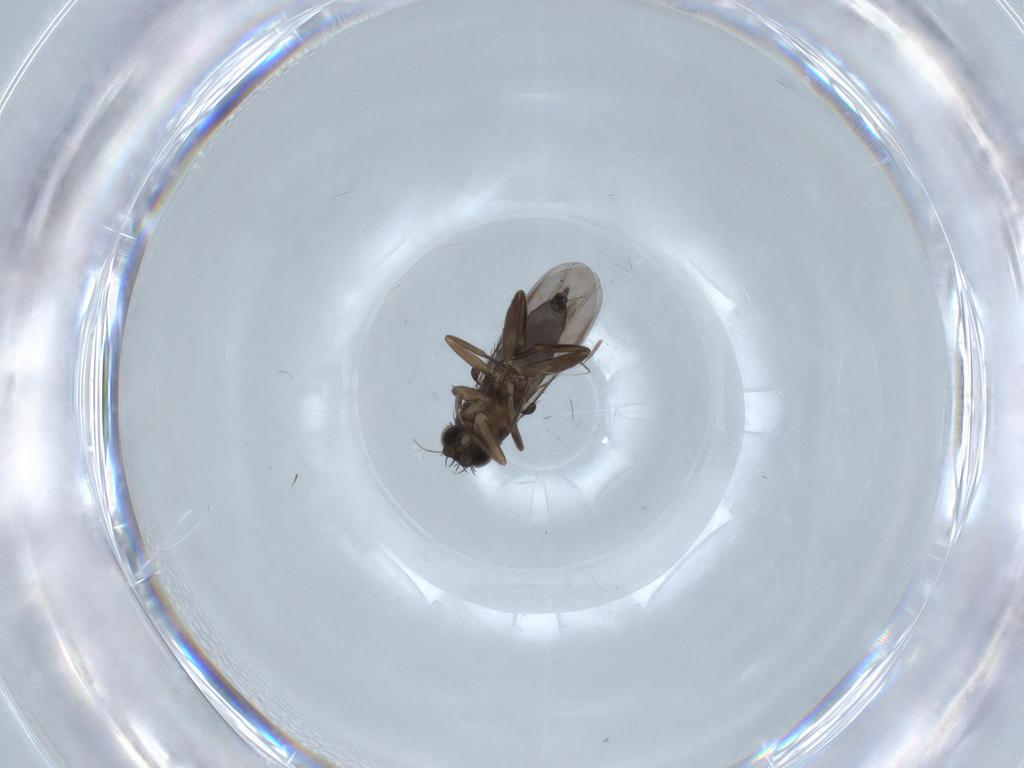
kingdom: Animalia
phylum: Arthropoda
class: Insecta
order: Diptera
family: Phoridae
